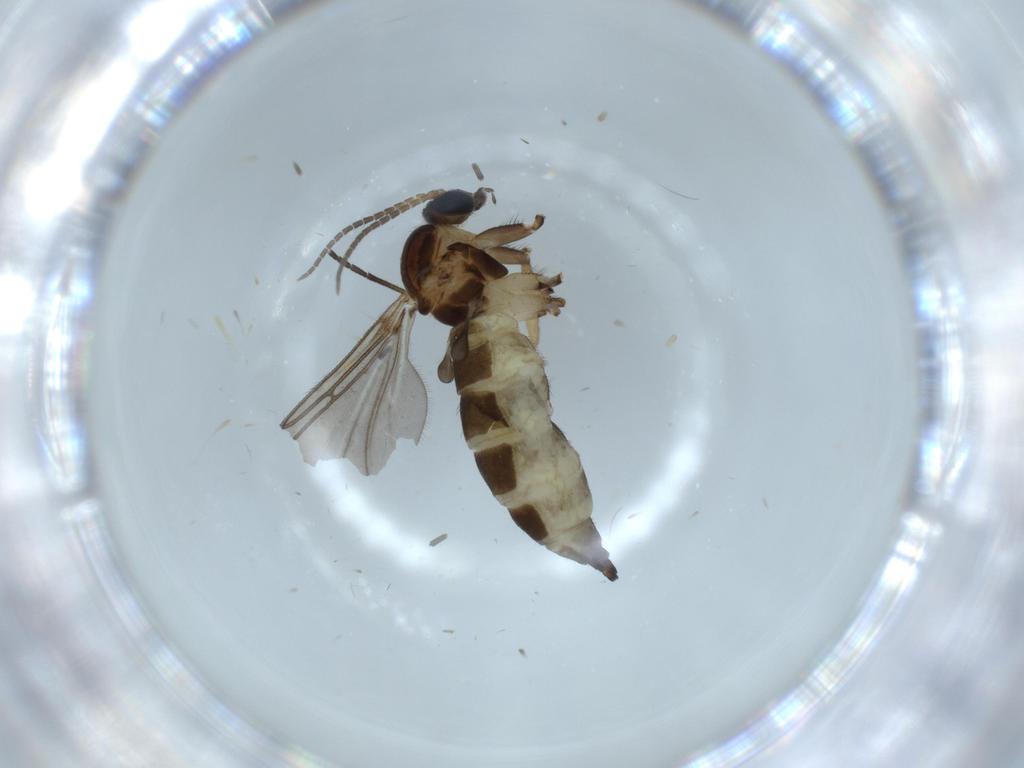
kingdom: Animalia
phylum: Arthropoda
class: Insecta
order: Diptera
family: Sciaridae
